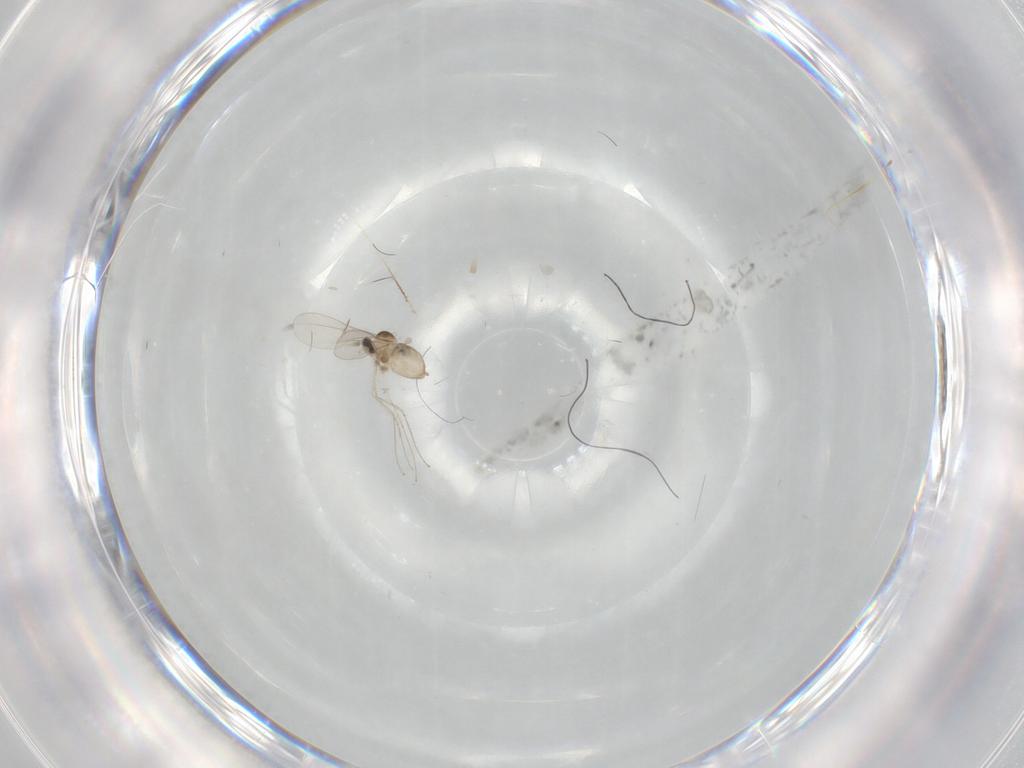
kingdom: Animalia
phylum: Arthropoda
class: Insecta
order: Diptera
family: Cecidomyiidae
